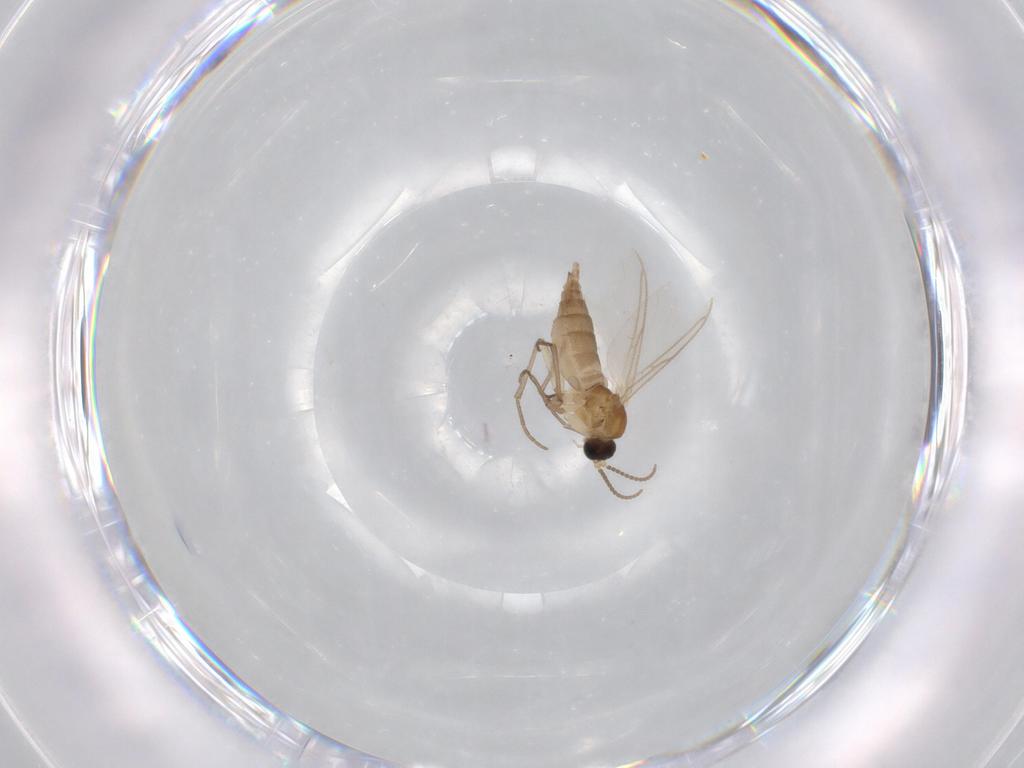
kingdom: Animalia
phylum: Arthropoda
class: Insecta
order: Diptera
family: Sciaridae
